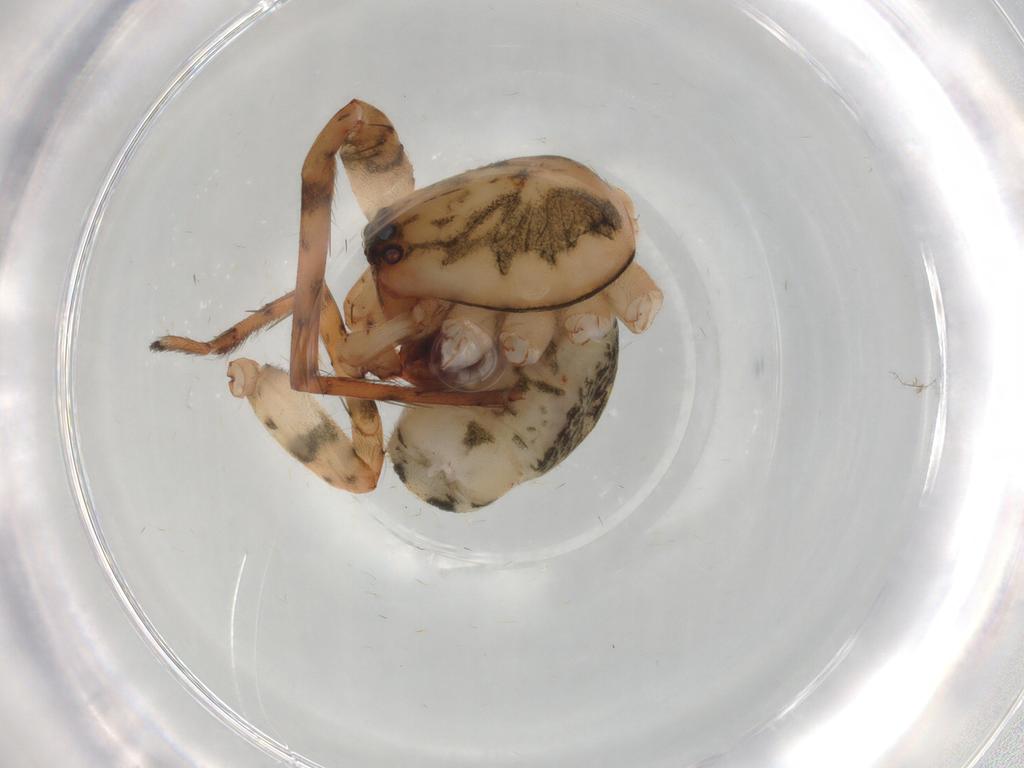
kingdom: Animalia
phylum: Arthropoda
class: Arachnida
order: Araneae
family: Anyphaenidae
